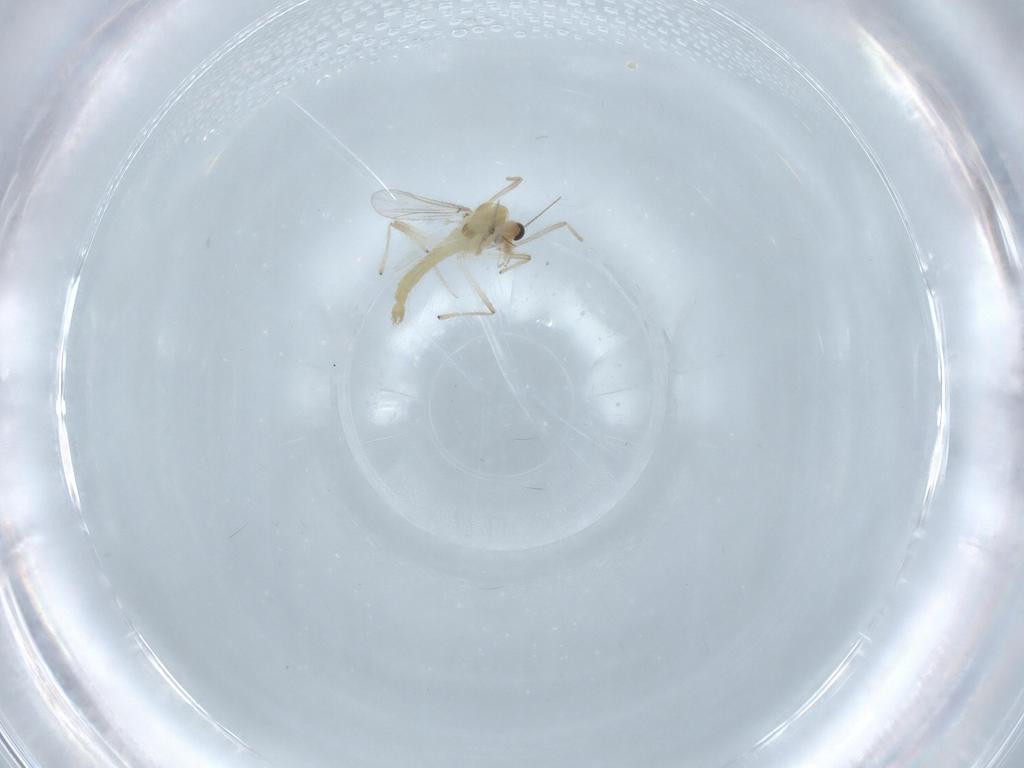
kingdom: Animalia
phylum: Arthropoda
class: Insecta
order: Diptera
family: Chironomidae
